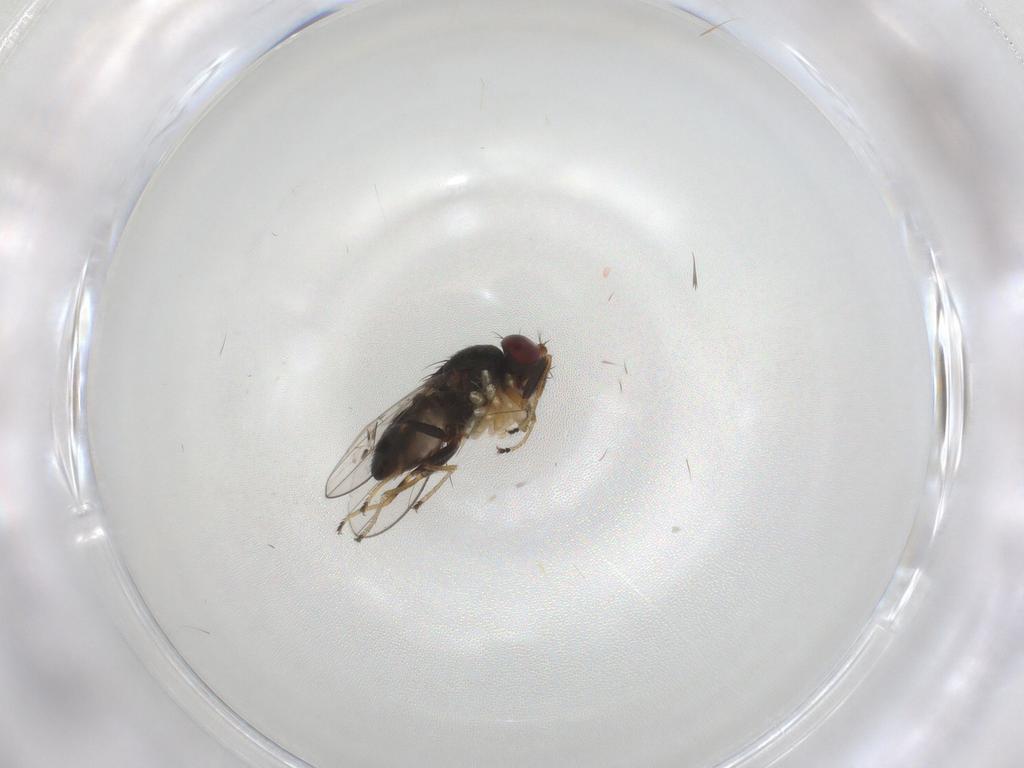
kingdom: Animalia
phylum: Arthropoda
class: Insecta
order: Diptera
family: Ephydridae
